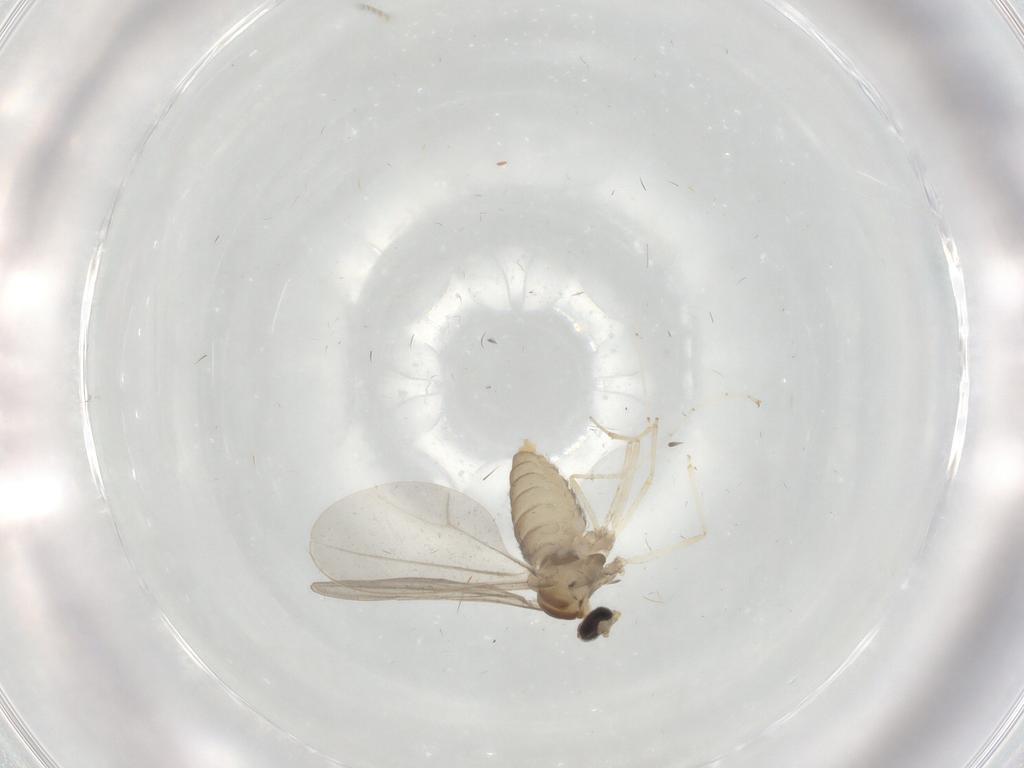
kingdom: Animalia
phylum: Arthropoda
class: Insecta
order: Diptera
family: Cecidomyiidae
